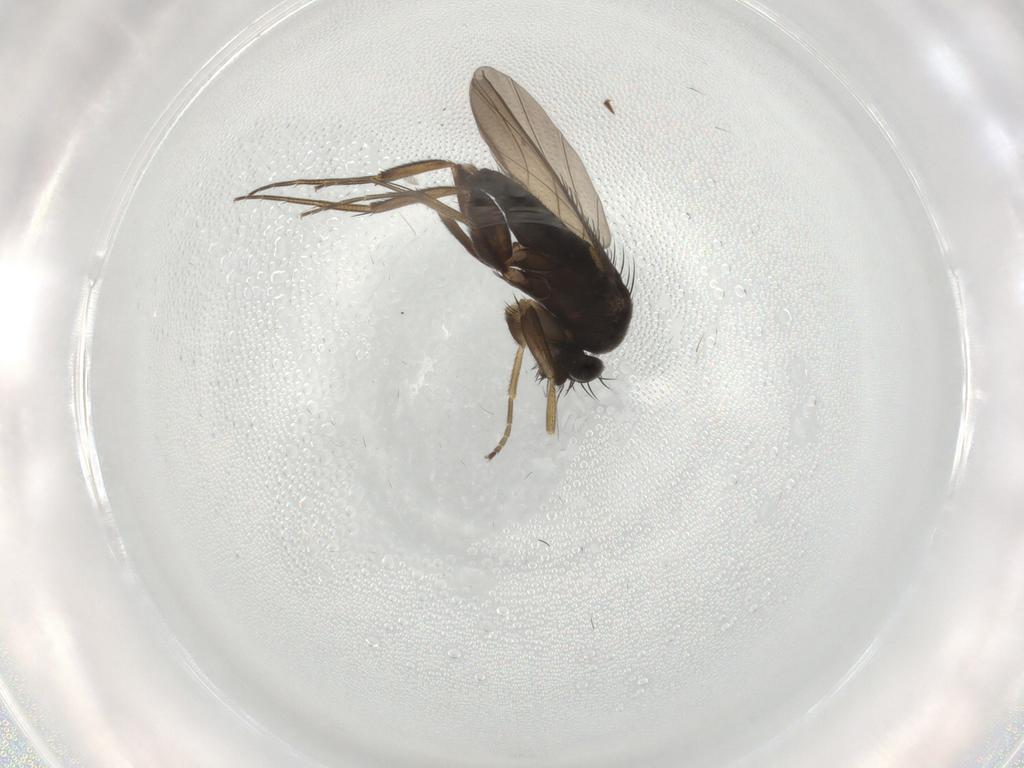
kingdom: Animalia
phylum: Arthropoda
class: Insecta
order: Diptera
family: Phoridae
